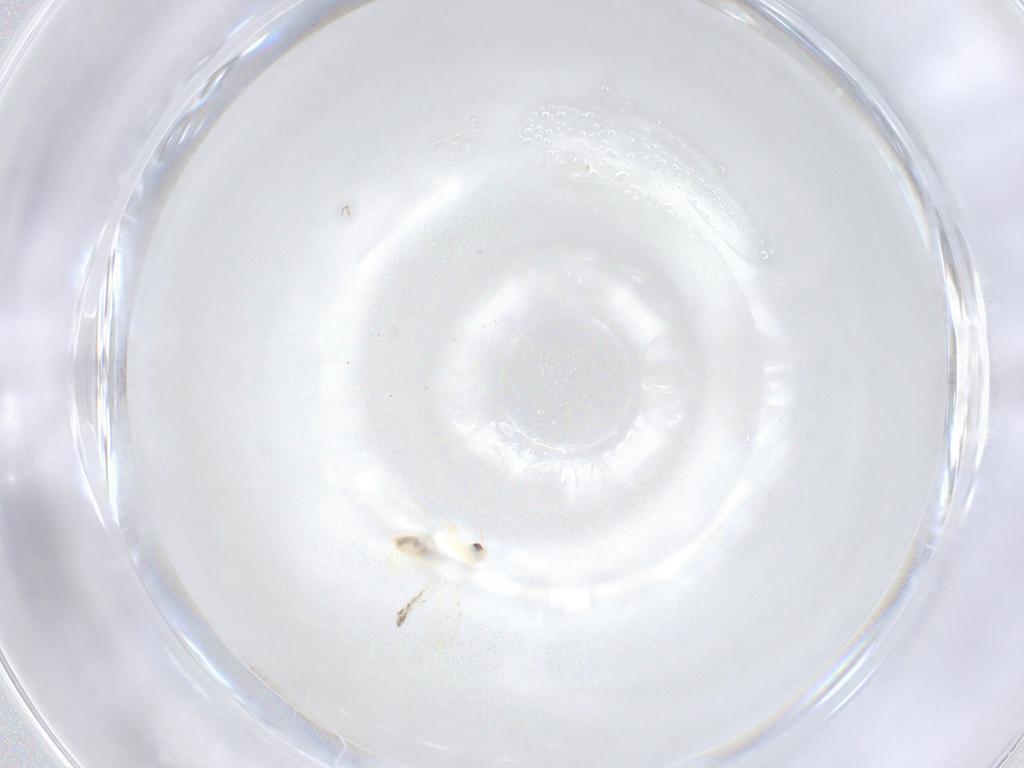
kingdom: Animalia
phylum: Arthropoda
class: Insecta
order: Hemiptera
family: Aleyrodidae
